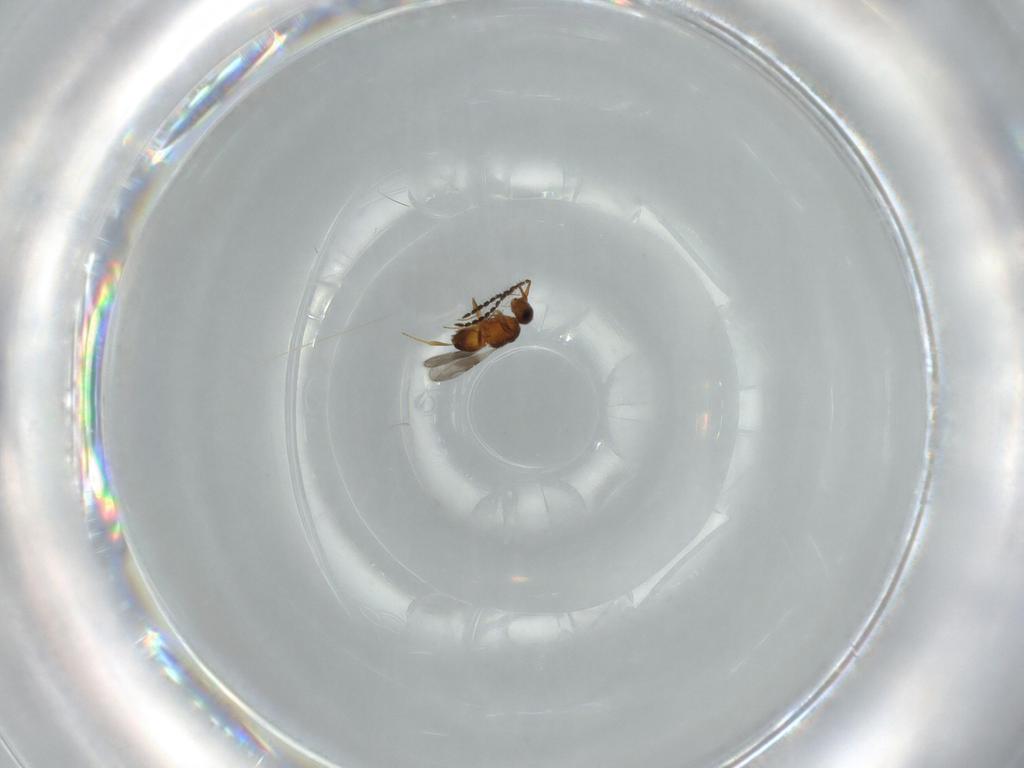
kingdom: Animalia
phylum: Arthropoda
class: Insecta
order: Hymenoptera
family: Ceraphronidae
